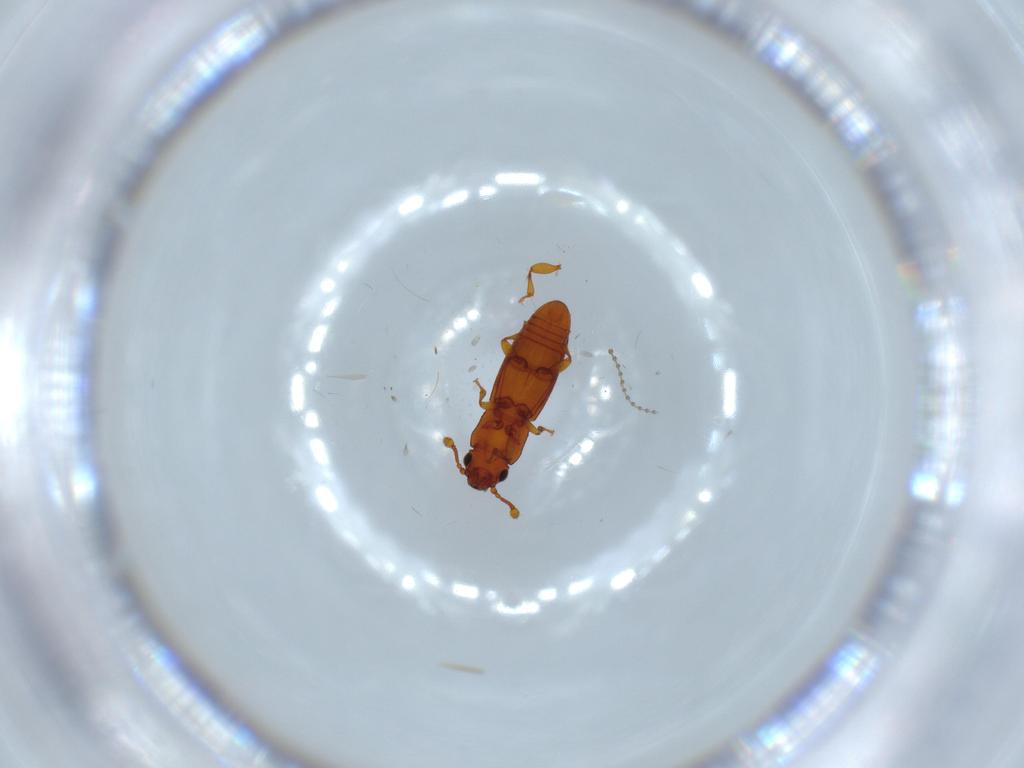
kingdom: Animalia
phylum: Arthropoda
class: Insecta
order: Coleoptera
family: Monotomidae
